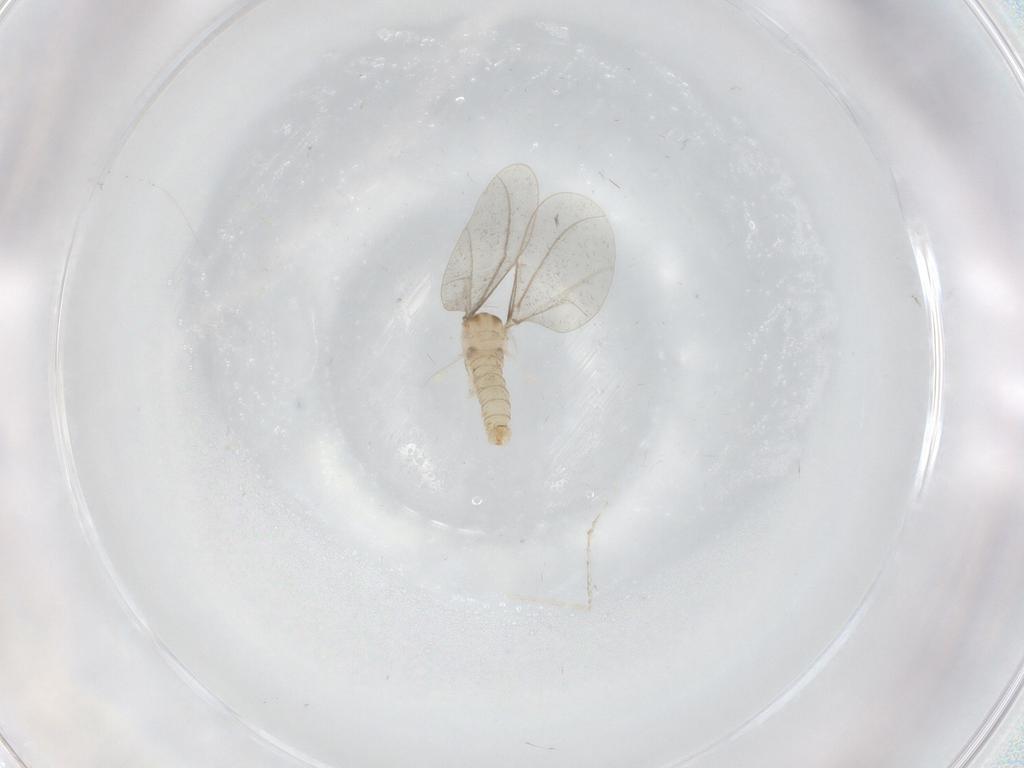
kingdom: Animalia
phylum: Arthropoda
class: Insecta
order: Diptera
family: Cecidomyiidae
